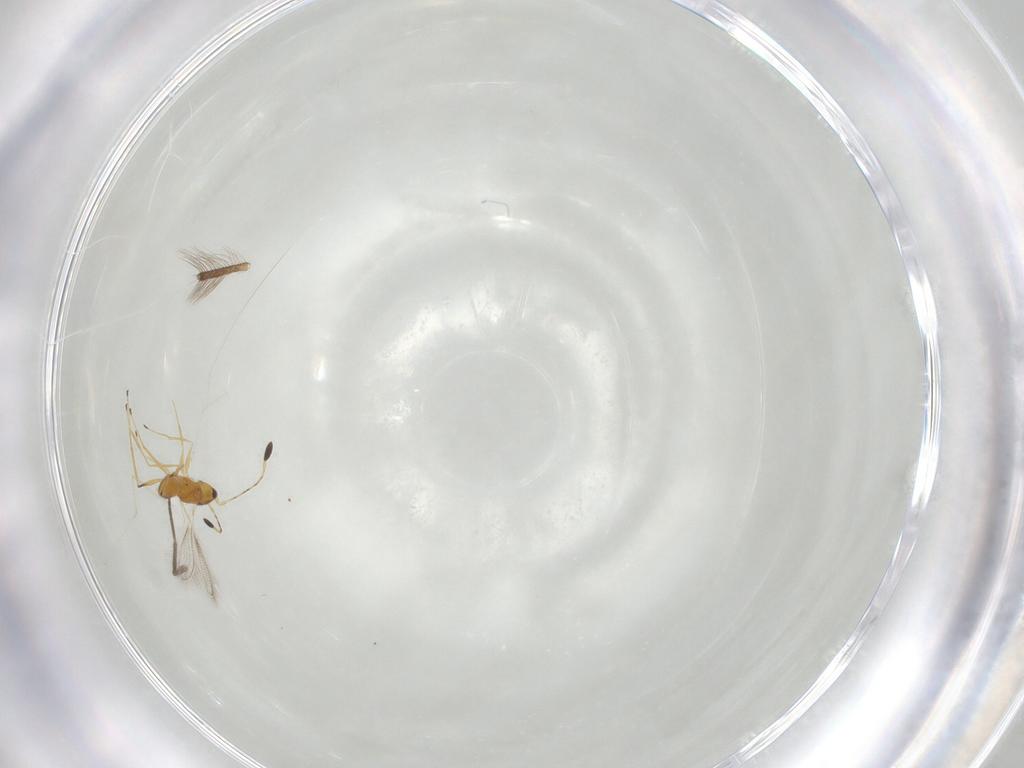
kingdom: Animalia
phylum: Arthropoda
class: Insecta
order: Hymenoptera
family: Mymaridae
